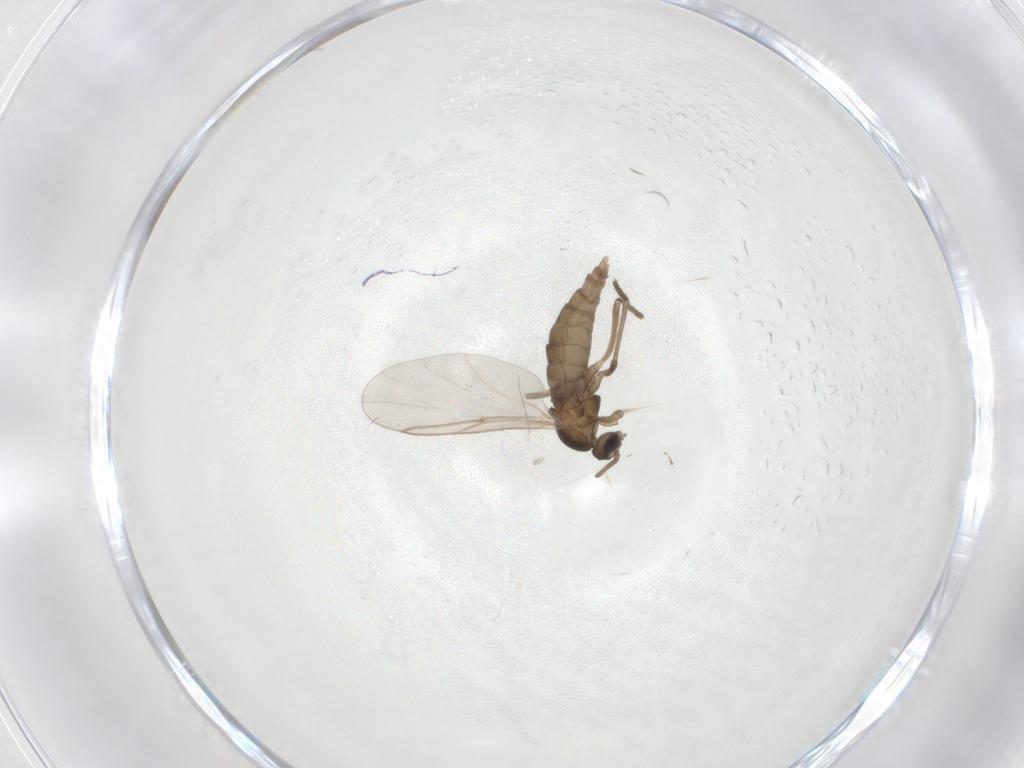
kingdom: Animalia
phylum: Arthropoda
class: Insecta
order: Diptera
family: Cecidomyiidae
